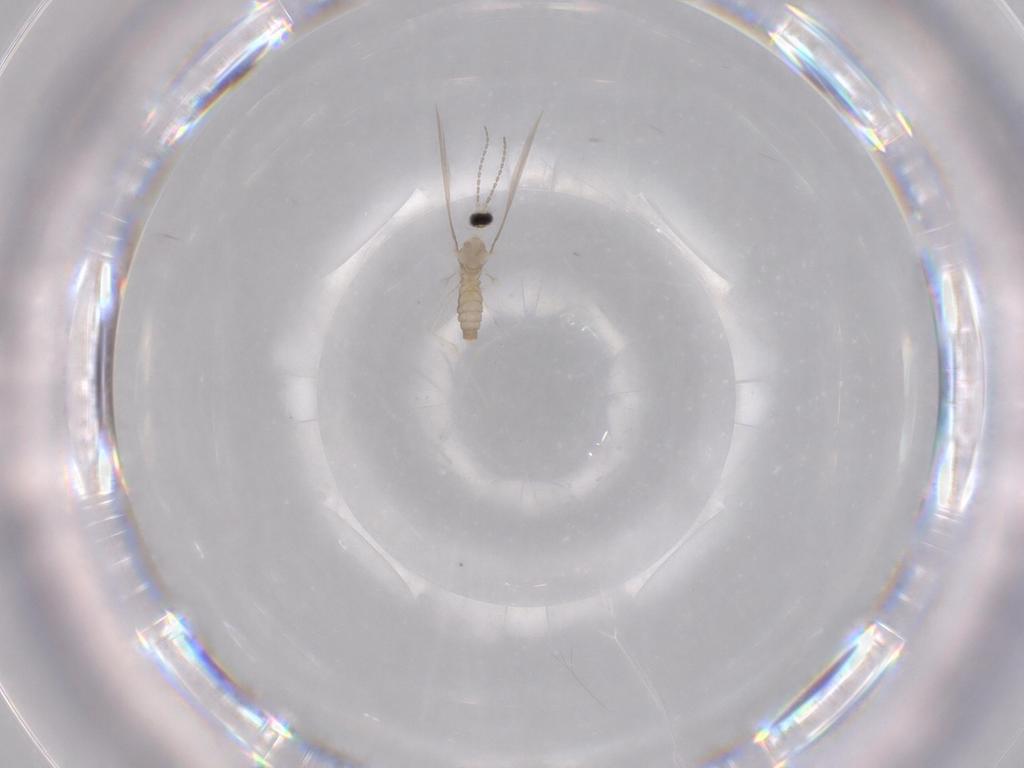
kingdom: Animalia
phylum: Arthropoda
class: Insecta
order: Diptera
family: Cecidomyiidae
